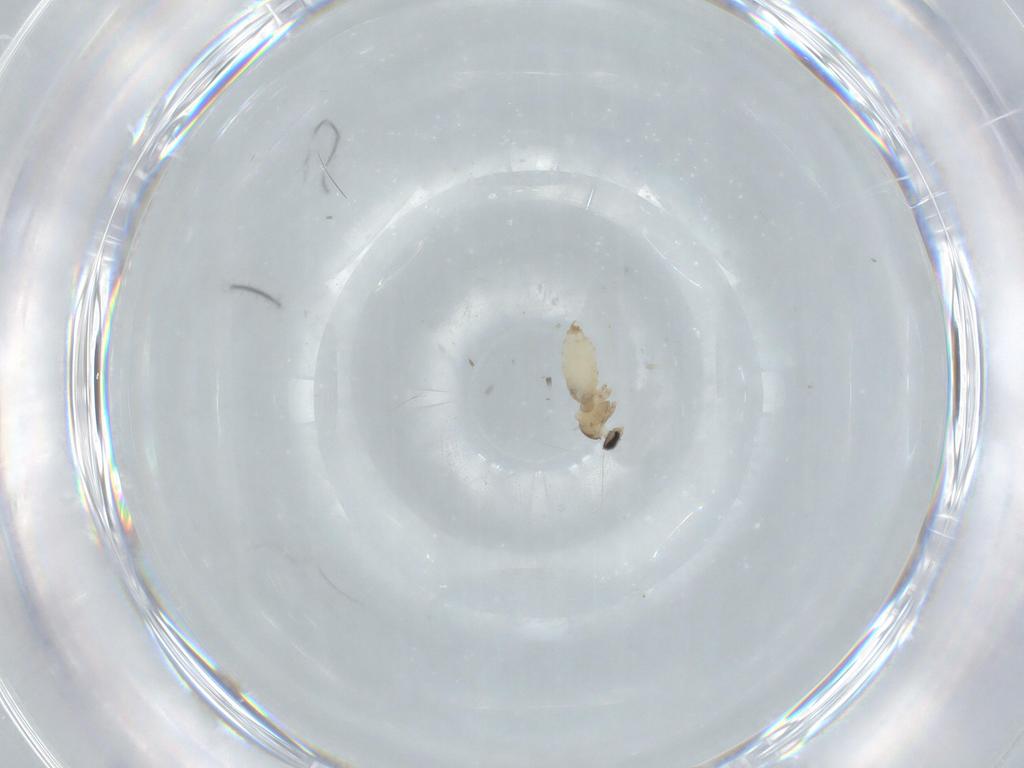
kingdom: Animalia
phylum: Arthropoda
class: Insecta
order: Diptera
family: Cecidomyiidae
